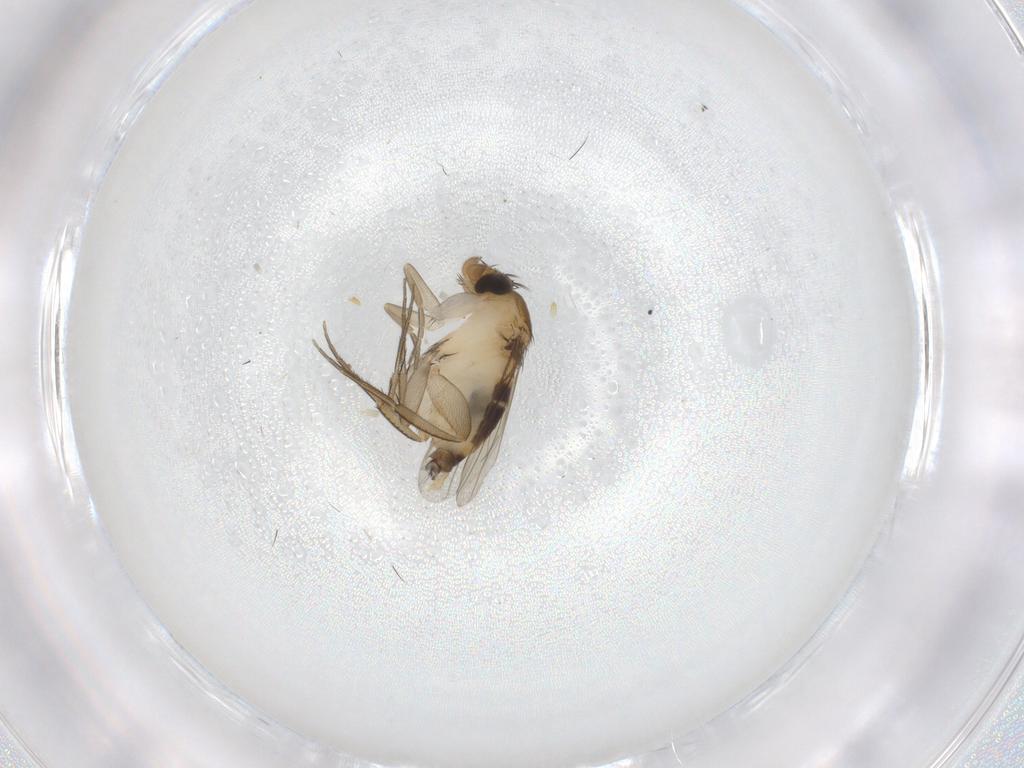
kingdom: Animalia
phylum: Arthropoda
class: Insecta
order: Diptera
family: Phoridae
